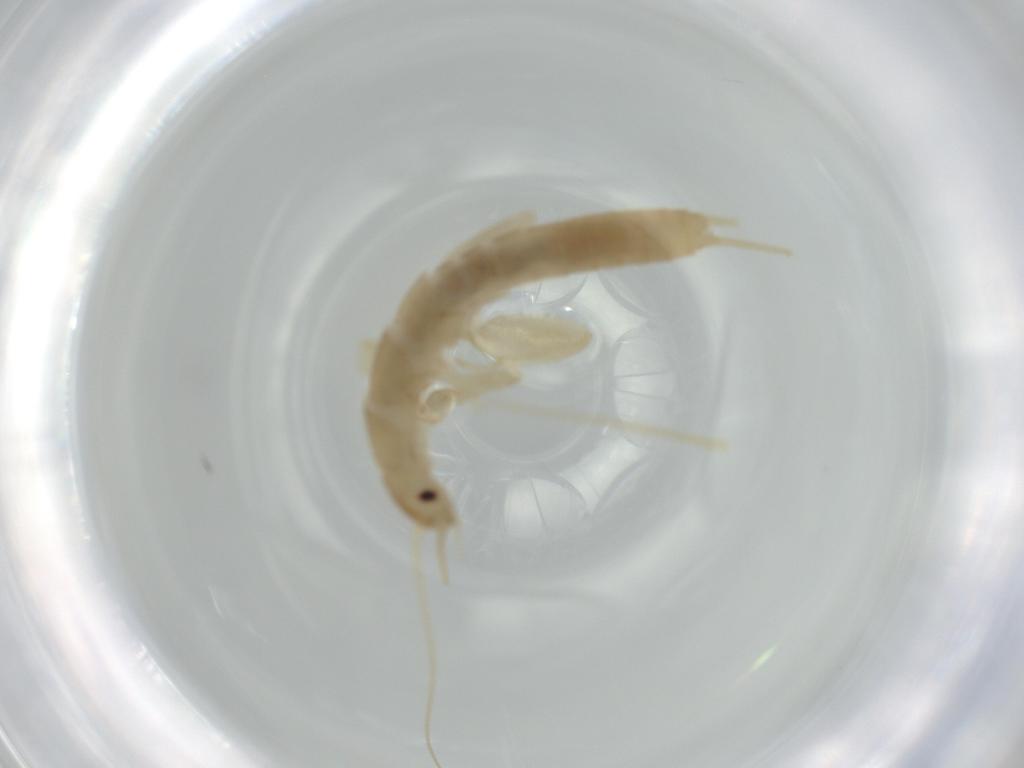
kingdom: Animalia
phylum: Arthropoda
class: Insecta
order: Plecoptera
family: Leuctridae
